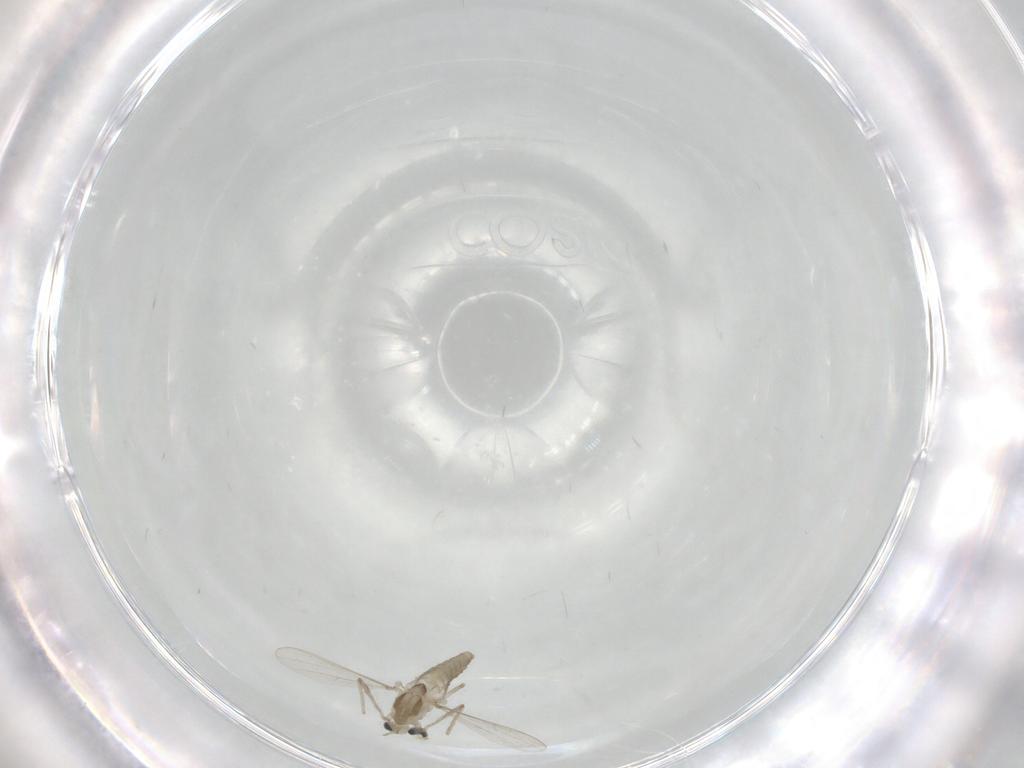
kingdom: Animalia
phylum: Arthropoda
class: Insecta
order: Diptera
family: Chironomidae
